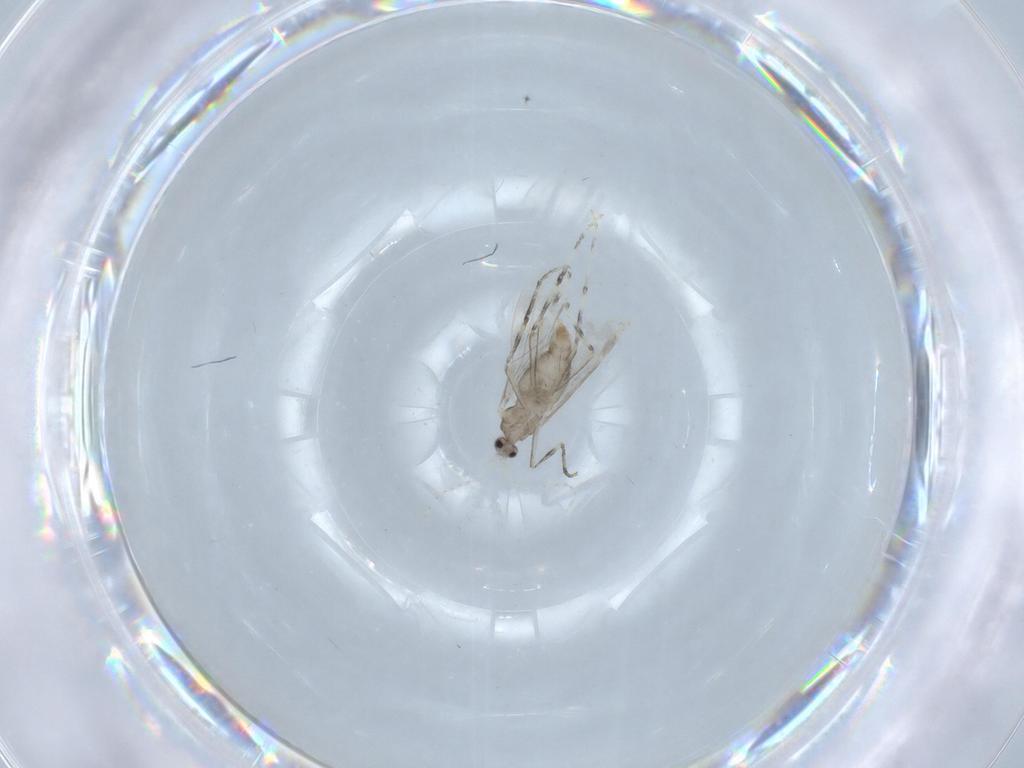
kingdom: Animalia
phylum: Arthropoda
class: Insecta
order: Diptera
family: Cecidomyiidae
